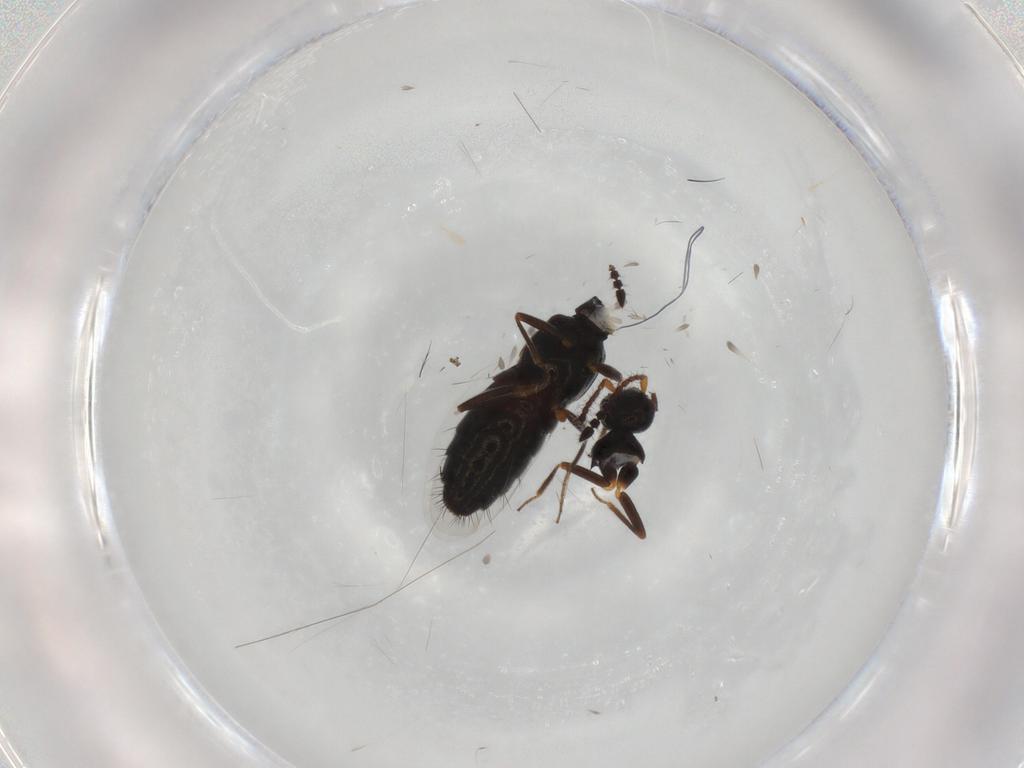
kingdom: Animalia
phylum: Arthropoda
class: Insecta
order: Coleoptera
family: Staphylinidae
